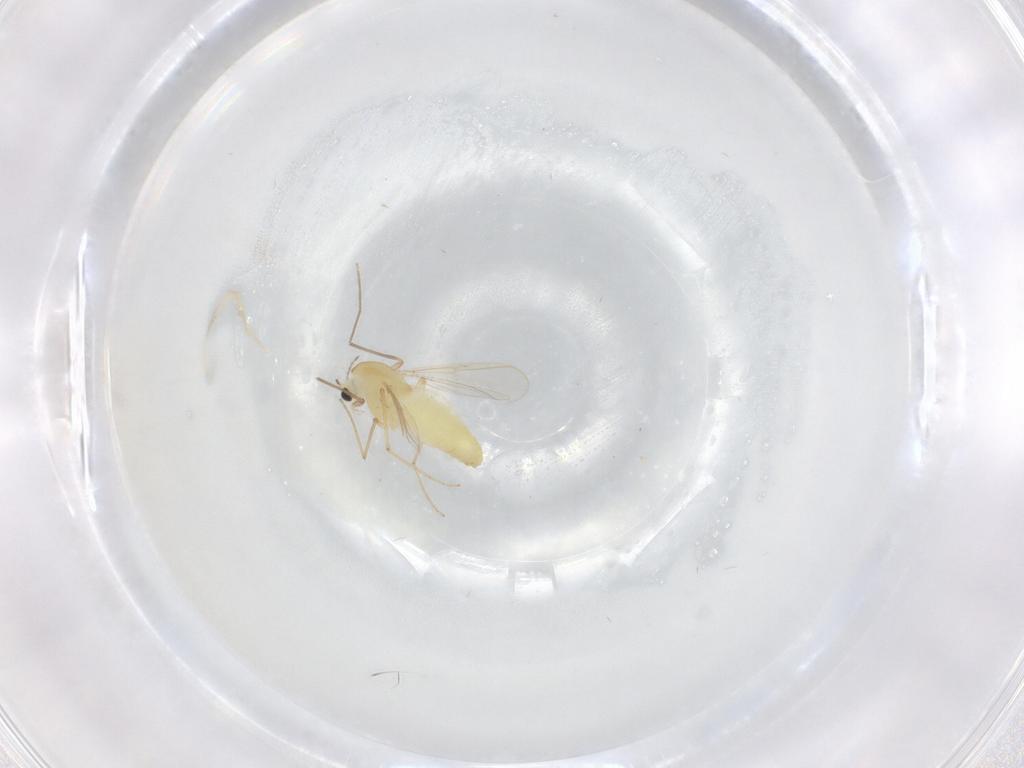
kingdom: Animalia
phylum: Arthropoda
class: Insecta
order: Diptera
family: Chironomidae
